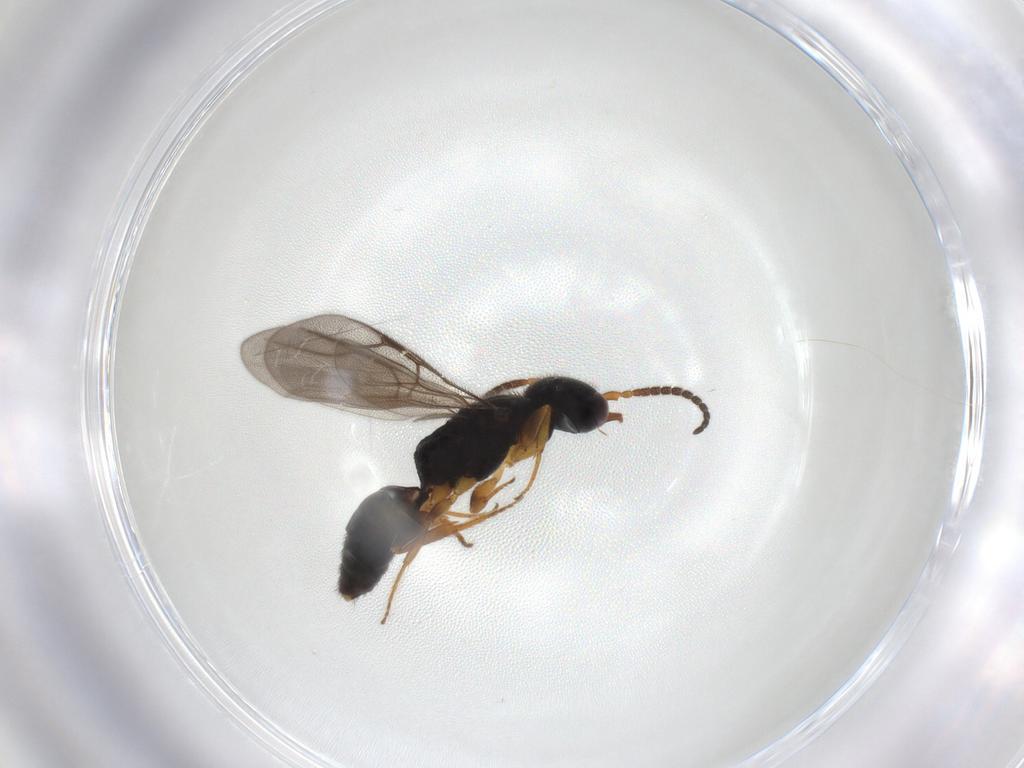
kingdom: Animalia
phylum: Arthropoda
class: Insecta
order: Hymenoptera
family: Bethylidae
